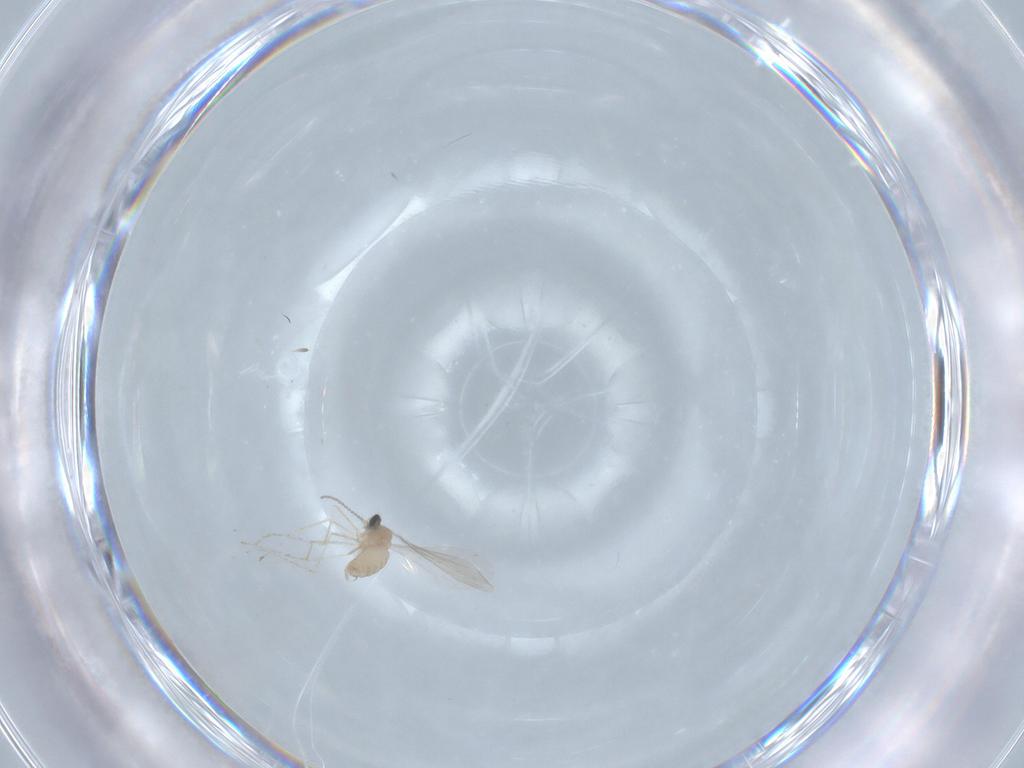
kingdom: Animalia
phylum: Arthropoda
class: Insecta
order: Diptera
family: Cecidomyiidae
